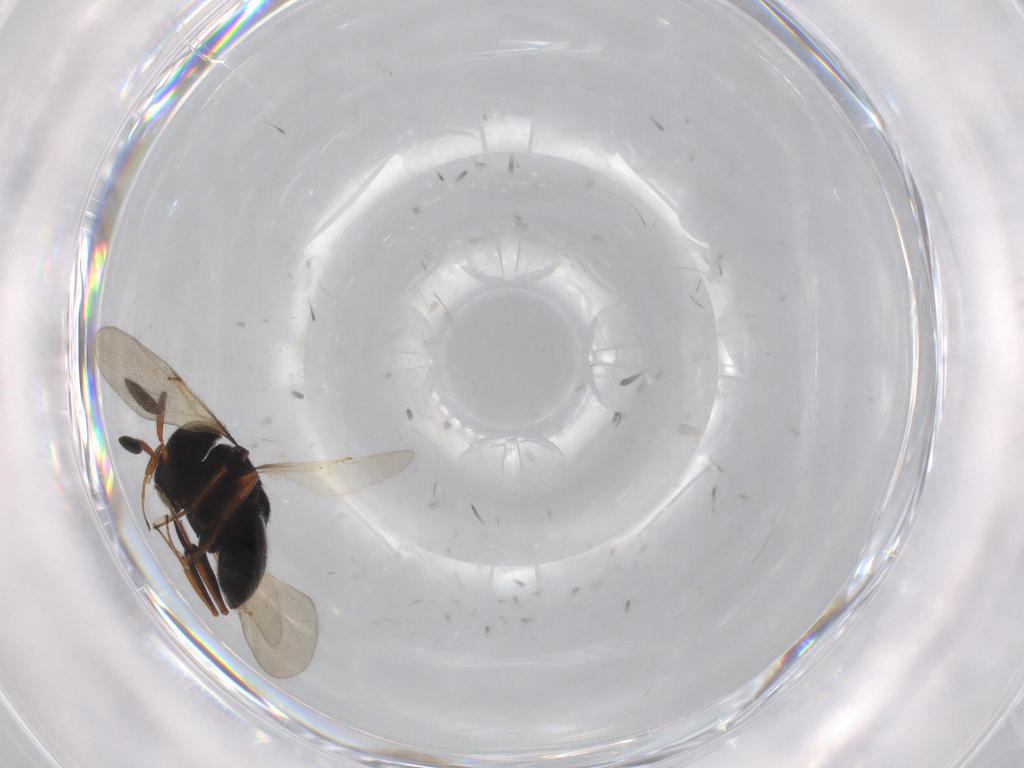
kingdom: Animalia
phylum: Arthropoda
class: Insecta
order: Hymenoptera
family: Scelionidae
